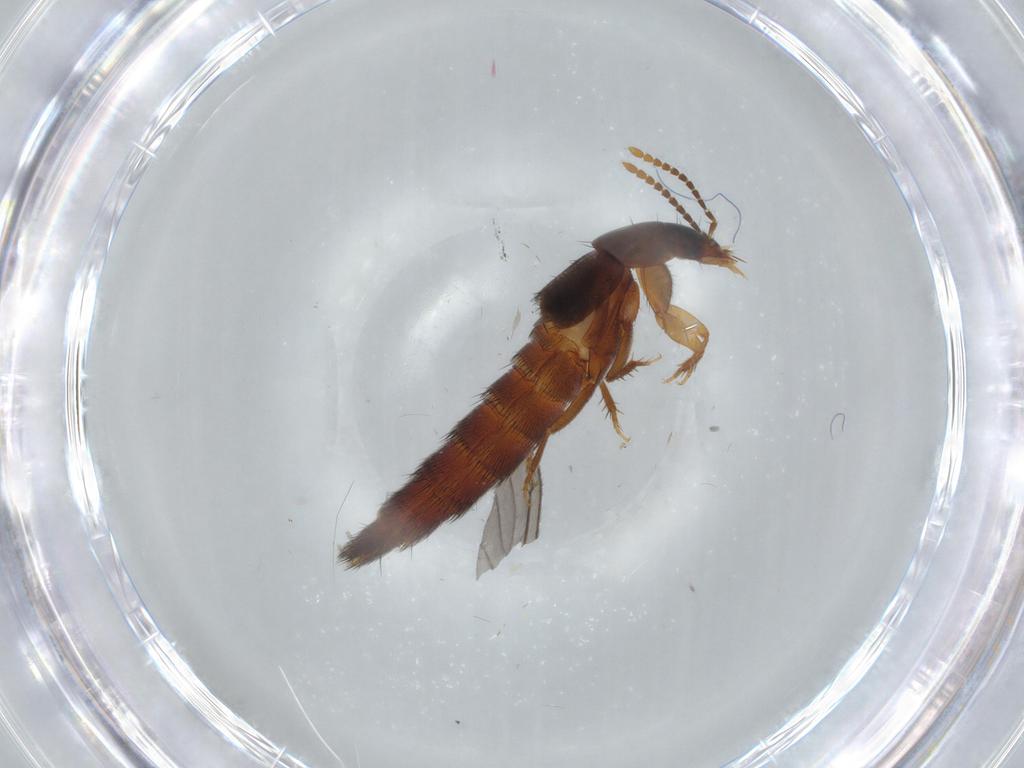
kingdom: Animalia
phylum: Arthropoda
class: Insecta
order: Coleoptera
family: Staphylinidae
